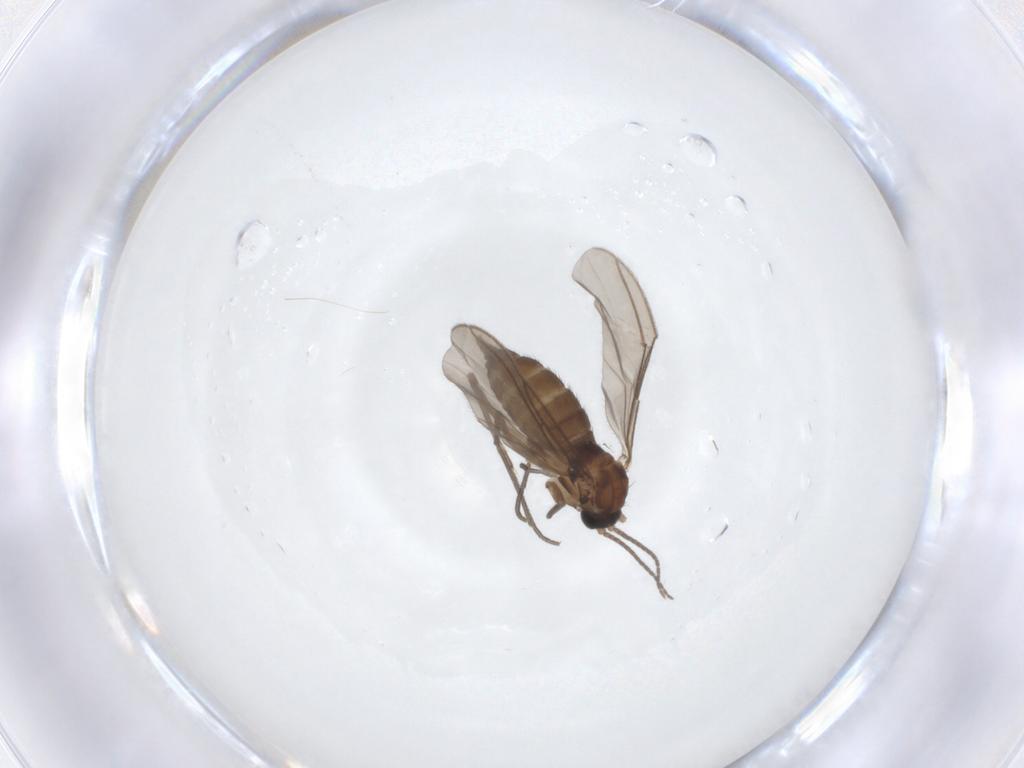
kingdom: Animalia
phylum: Arthropoda
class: Insecta
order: Diptera
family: Sciaridae
